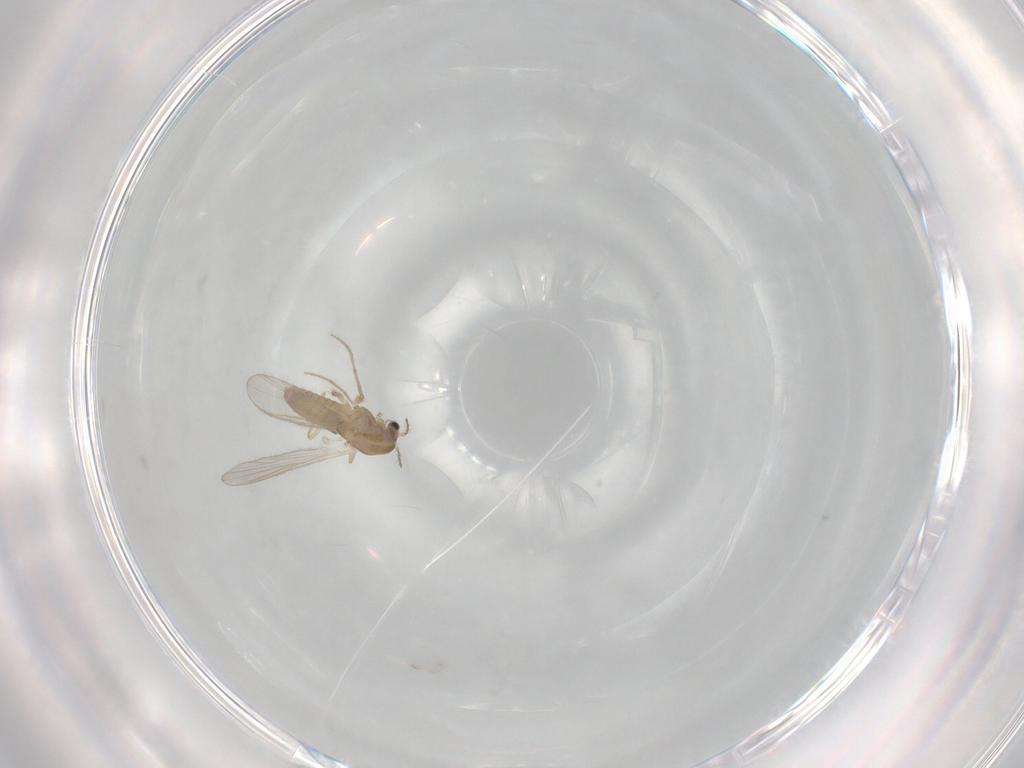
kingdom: Animalia
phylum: Arthropoda
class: Insecta
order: Diptera
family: Chironomidae
